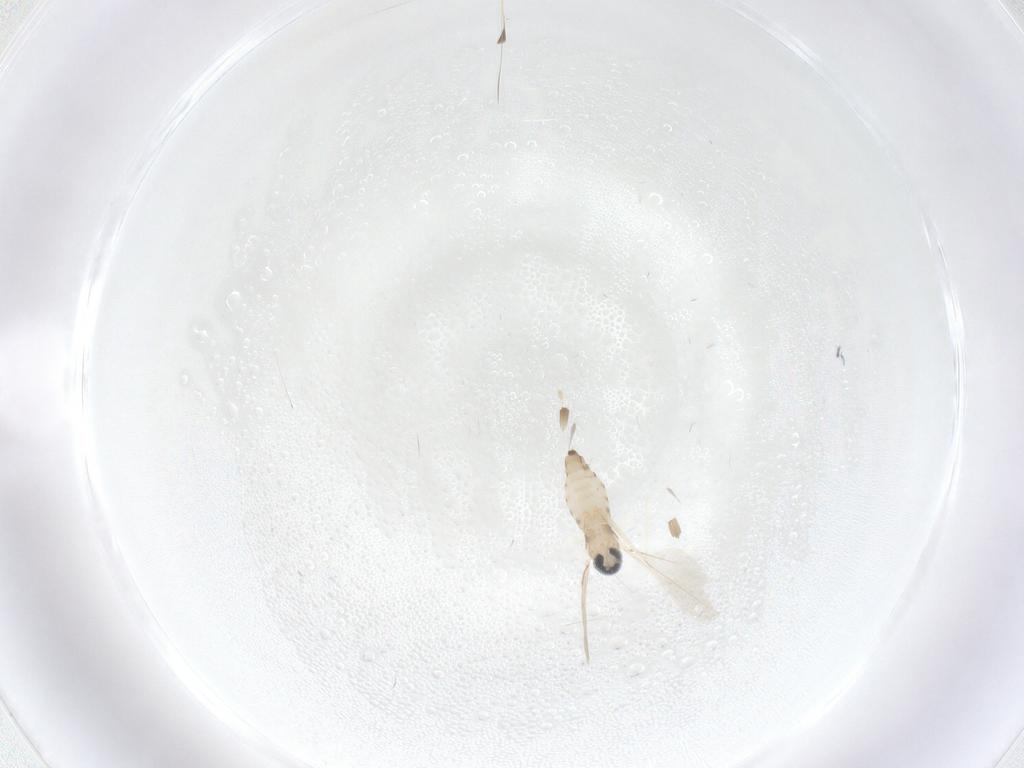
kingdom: Animalia
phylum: Arthropoda
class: Insecta
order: Diptera
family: Cecidomyiidae
